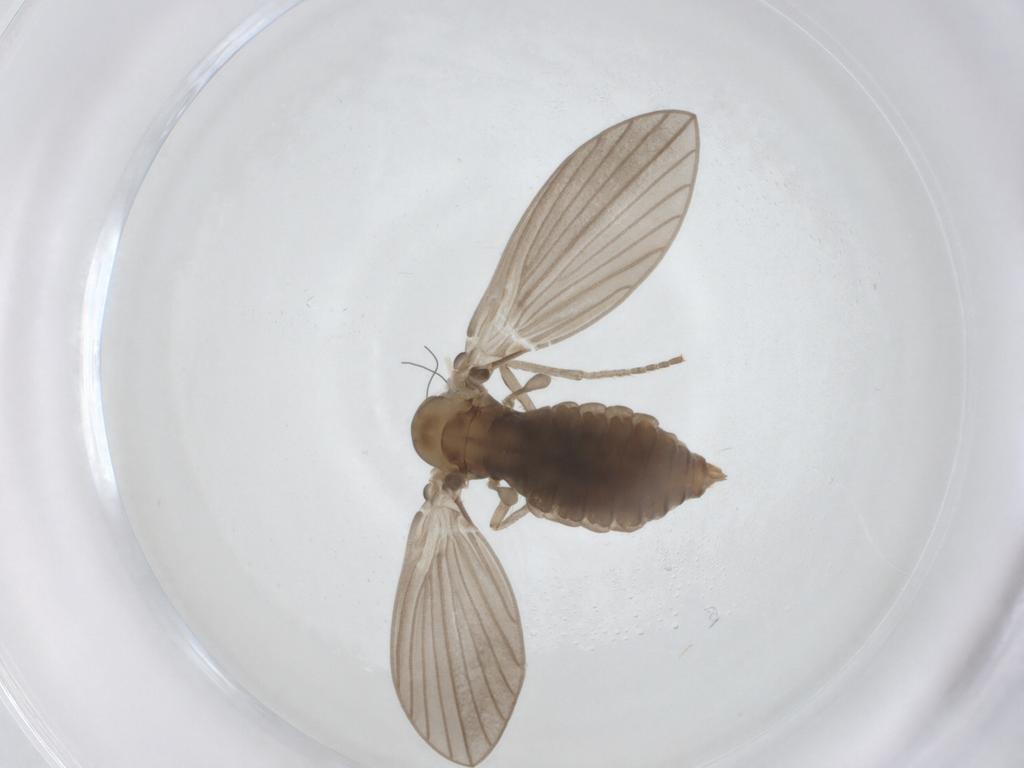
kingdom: Animalia
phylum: Arthropoda
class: Insecta
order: Diptera
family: Psychodidae
